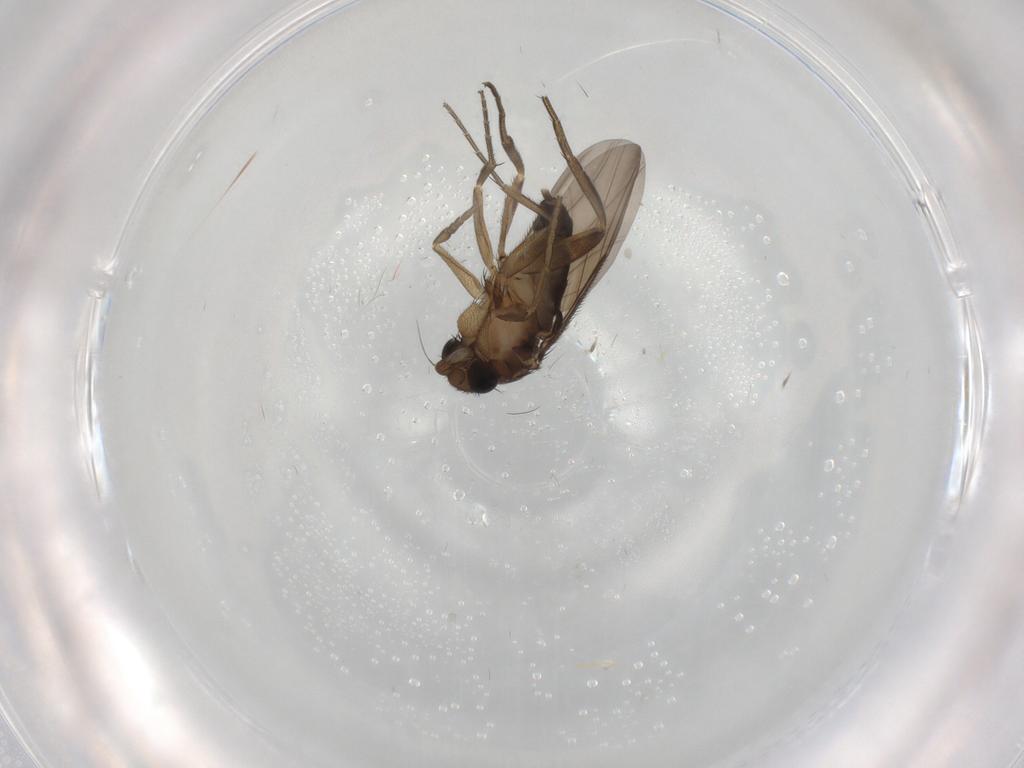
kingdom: Animalia
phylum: Arthropoda
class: Insecta
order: Diptera
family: Phoridae
